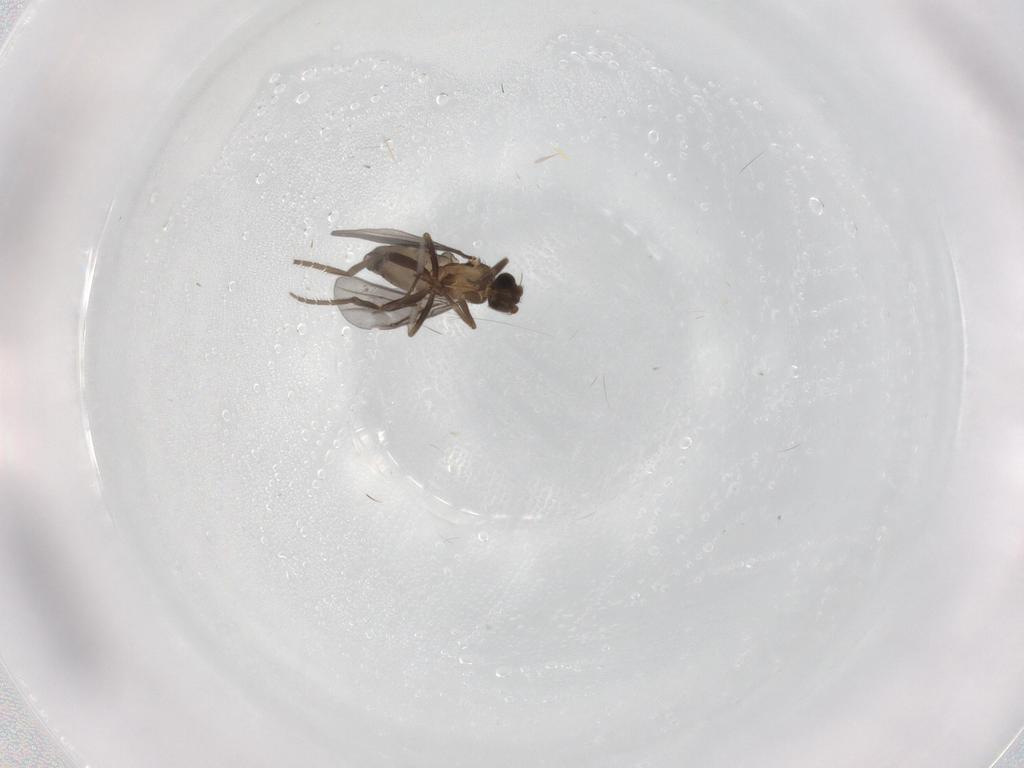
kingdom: Animalia
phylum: Arthropoda
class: Insecta
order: Diptera
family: Phoridae
